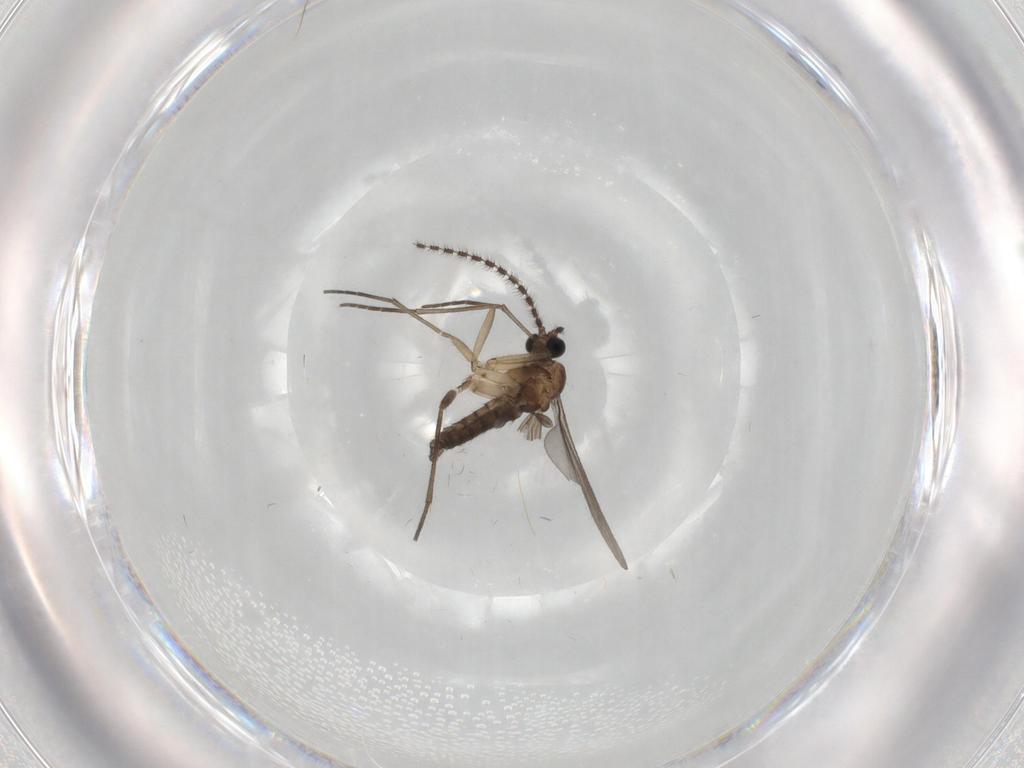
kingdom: Animalia
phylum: Arthropoda
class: Insecta
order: Diptera
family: Sciaridae
